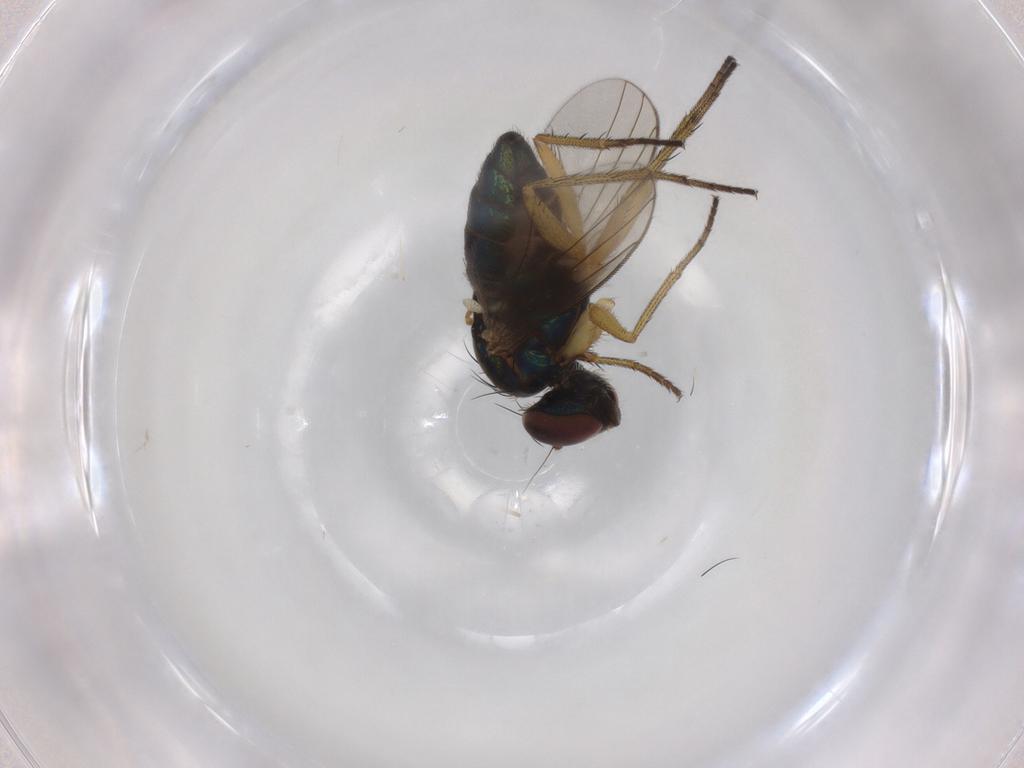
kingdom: Animalia
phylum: Arthropoda
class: Insecta
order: Diptera
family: Ulidiidae
